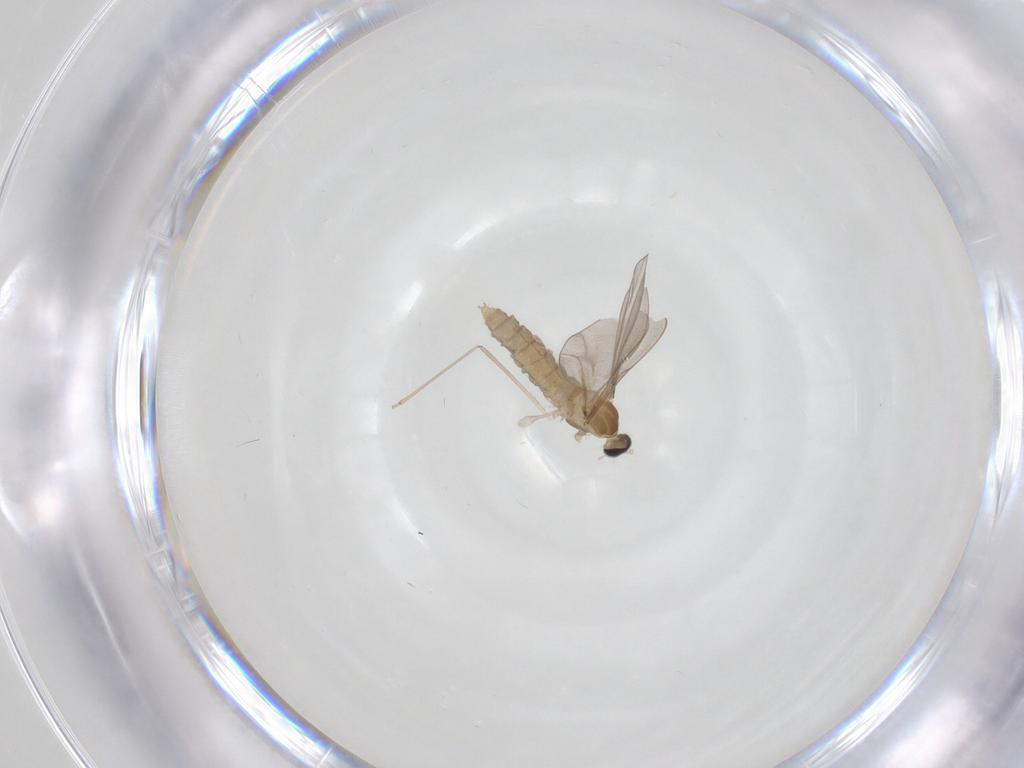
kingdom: Animalia
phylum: Arthropoda
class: Insecta
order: Diptera
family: Cecidomyiidae
